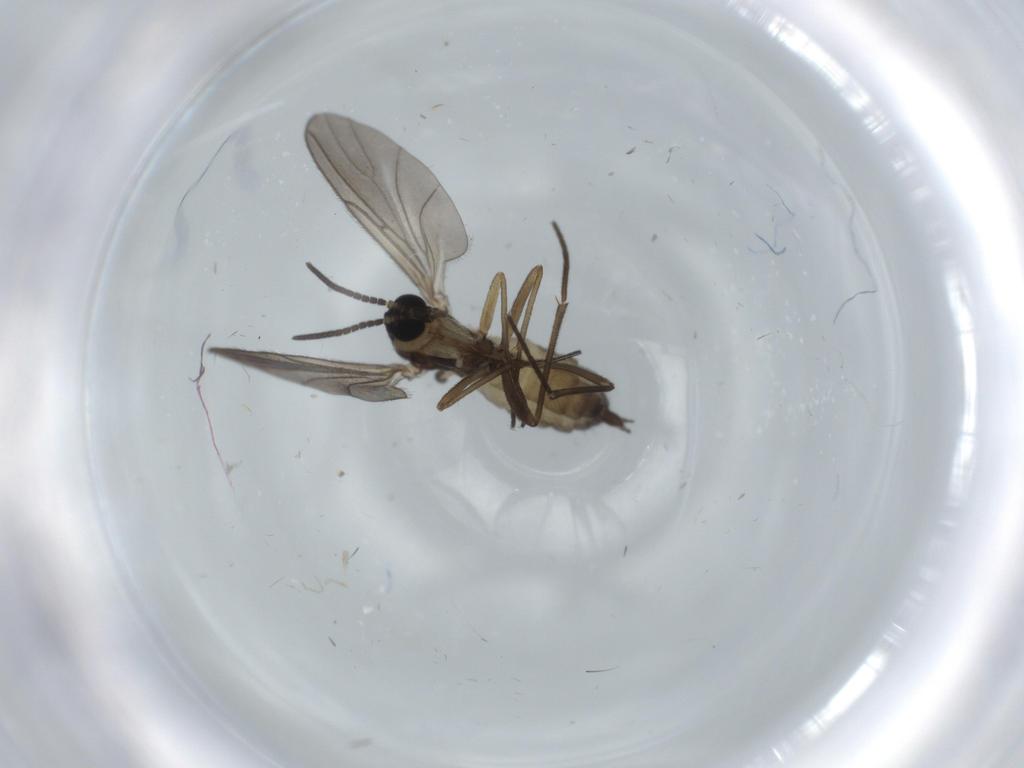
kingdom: Animalia
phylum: Arthropoda
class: Insecta
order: Diptera
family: Sciaridae
